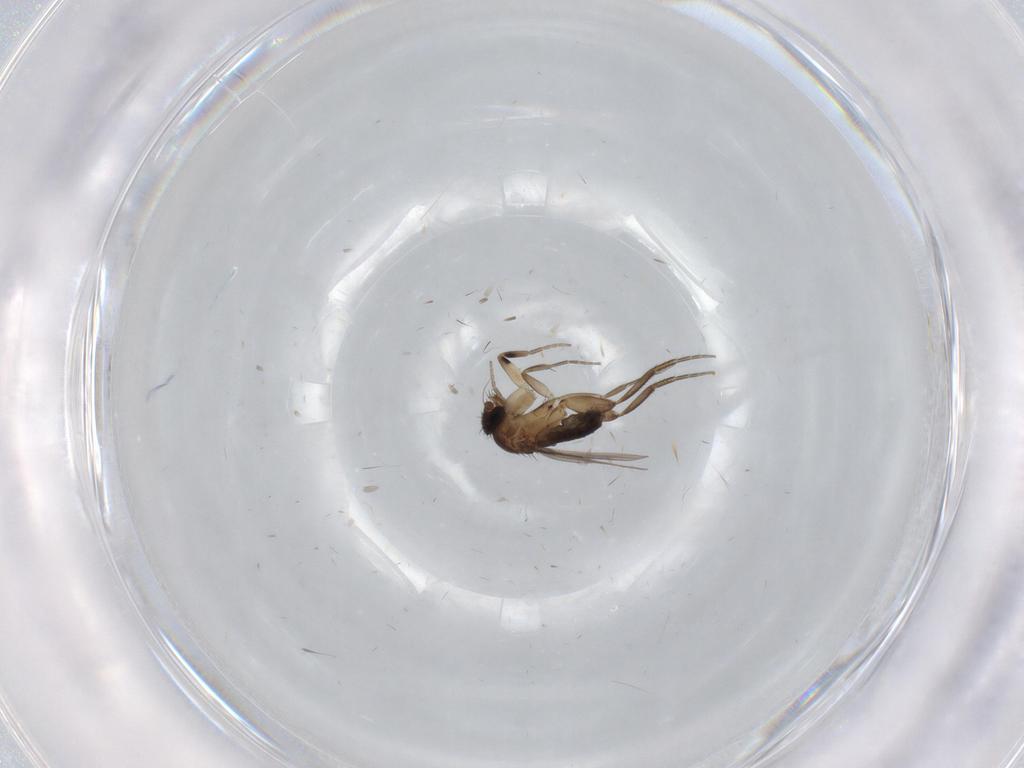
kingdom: Animalia
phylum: Arthropoda
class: Insecta
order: Diptera
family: Phoridae
